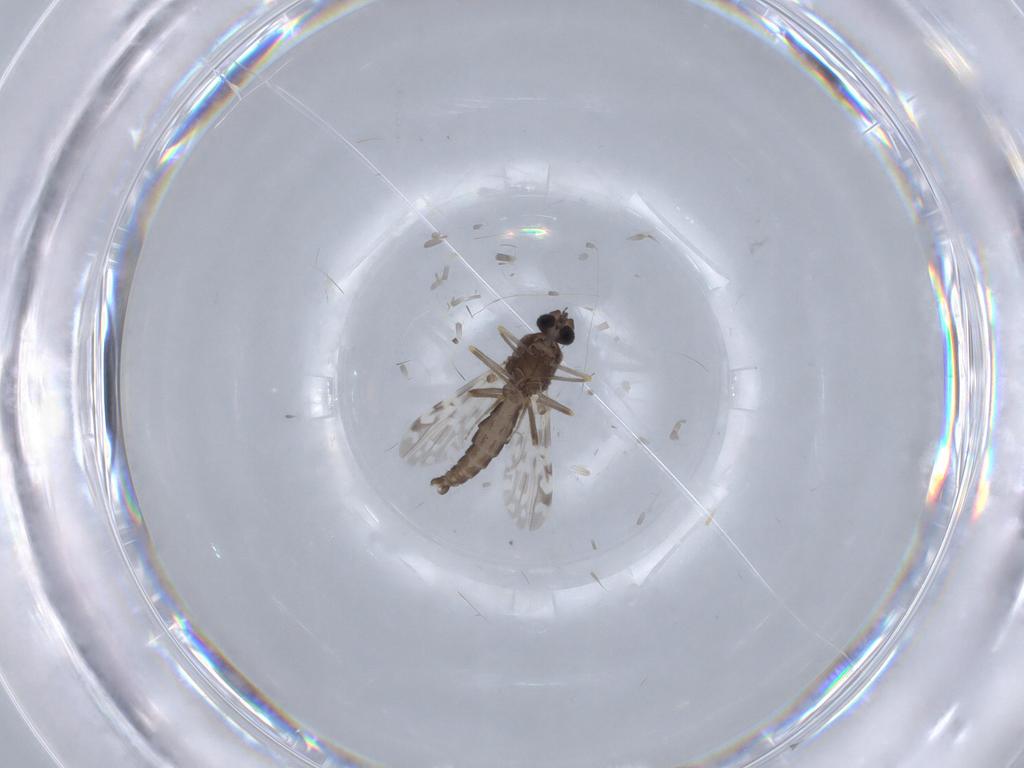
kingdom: Animalia
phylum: Arthropoda
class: Insecta
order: Diptera
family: Ceratopogonidae
